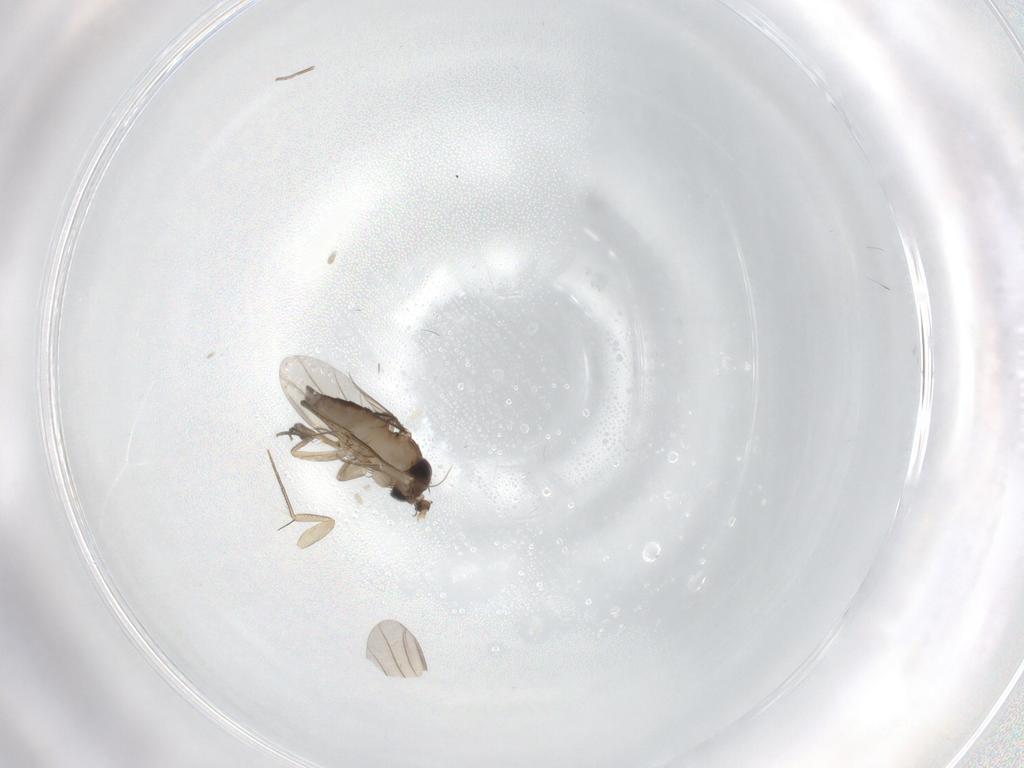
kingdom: Animalia
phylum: Arthropoda
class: Insecta
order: Diptera
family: Phoridae
